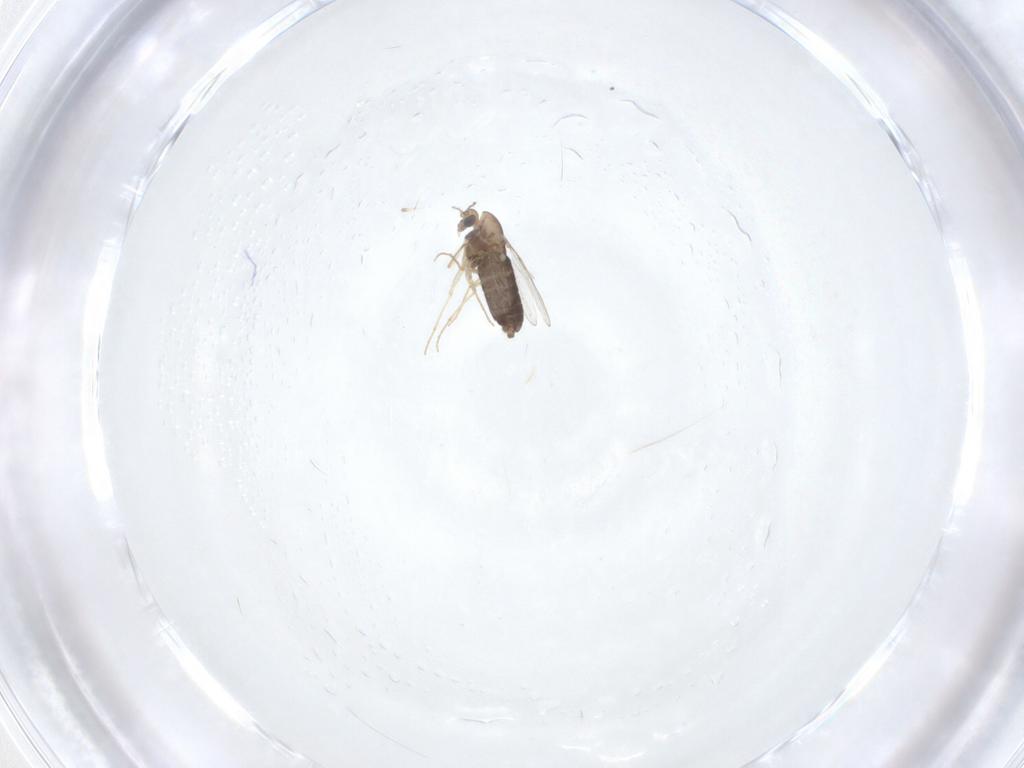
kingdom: Animalia
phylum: Arthropoda
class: Insecta
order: Diptera
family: Chironomidae
